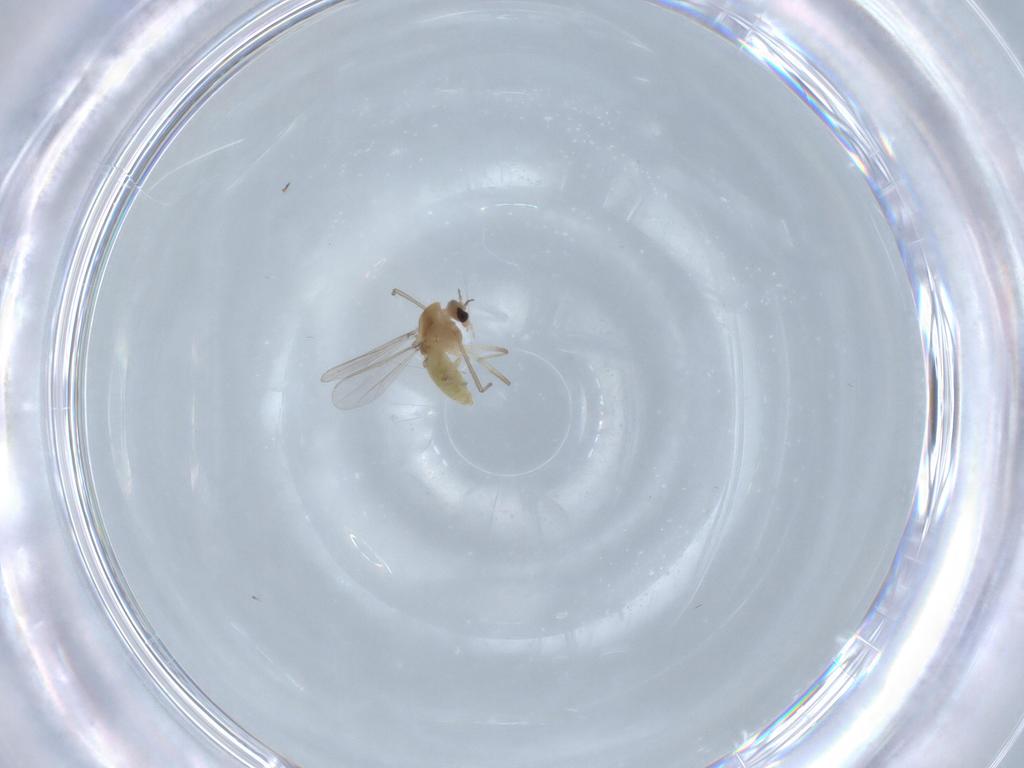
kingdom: Animalia
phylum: Arthropoda
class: Insecta
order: Diptera
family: Chironomidae
